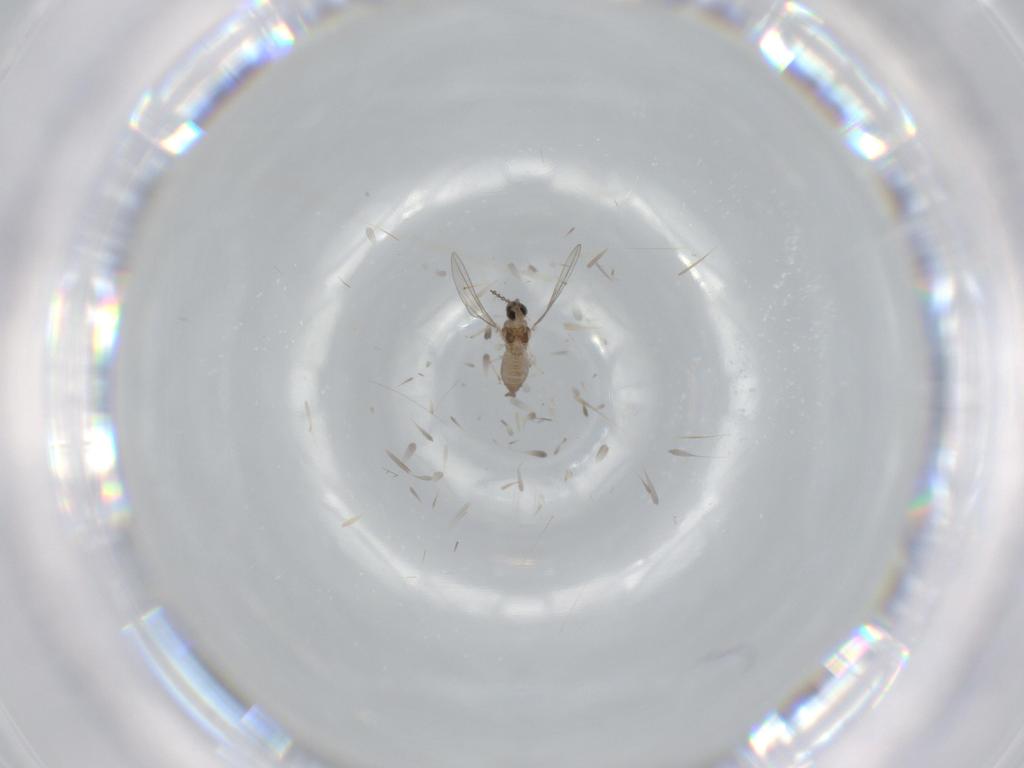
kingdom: Animalia
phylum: Arthropoda
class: Insecta
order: Diptera
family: Cecidomyiidae
